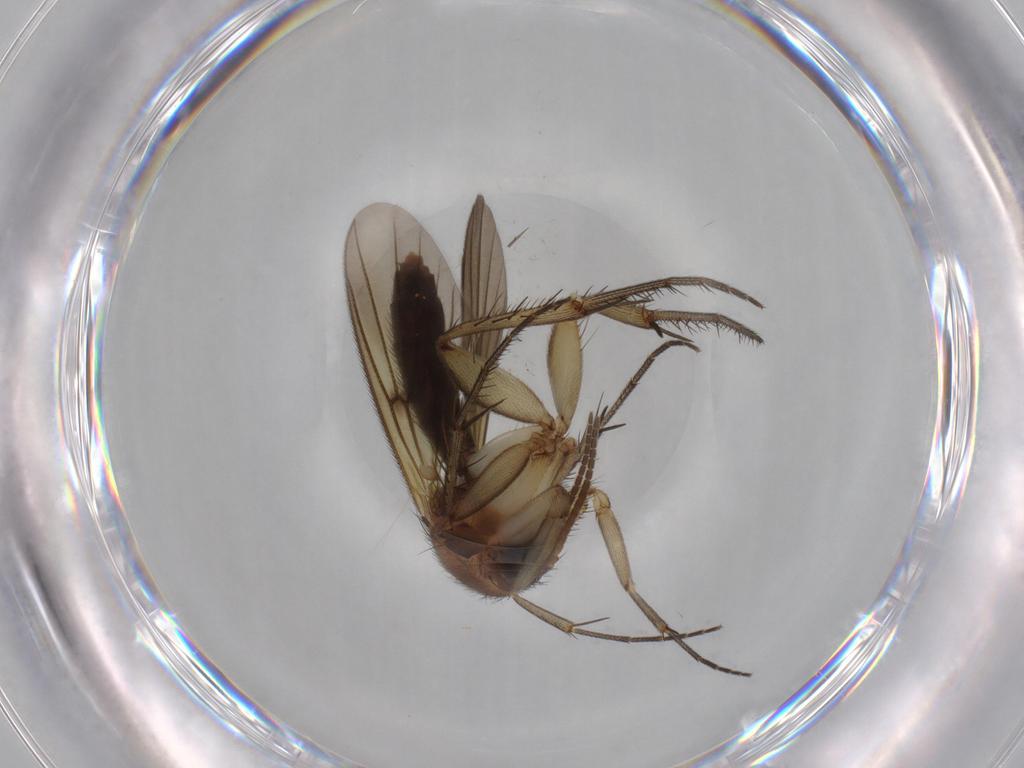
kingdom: Animalia
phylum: Arthropoda
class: Insecta
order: Diptera
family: Mycetophilidae
